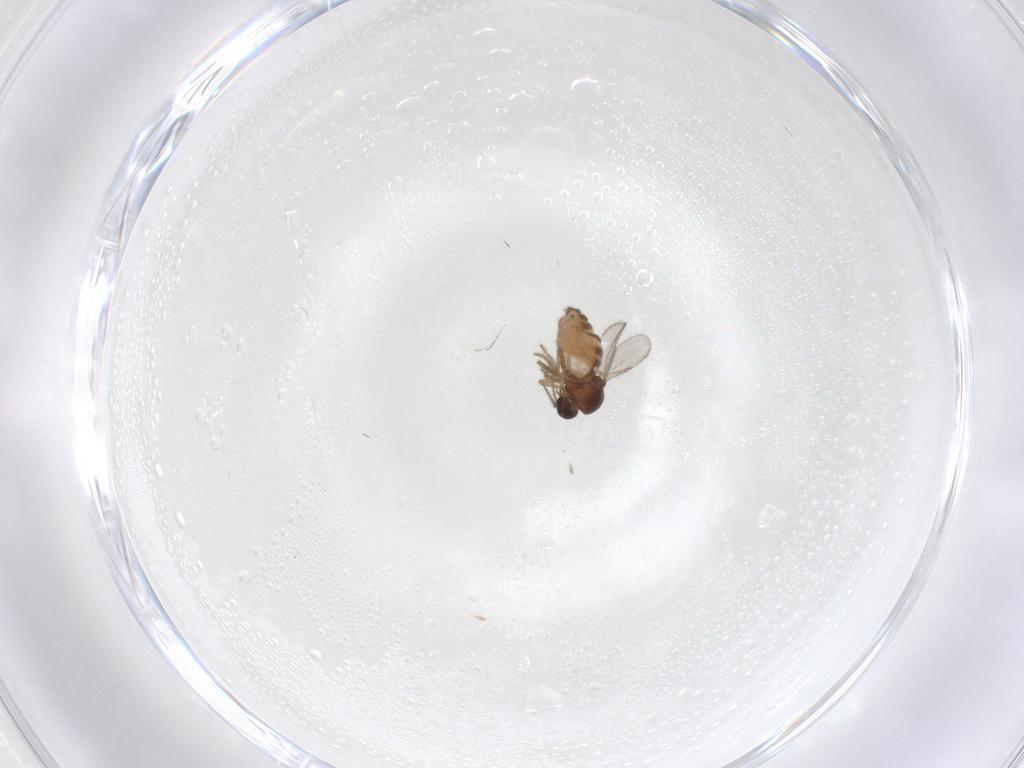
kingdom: Animalia
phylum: Arthropoda
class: Insecta
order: Diptera
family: Ceratopogonidae
